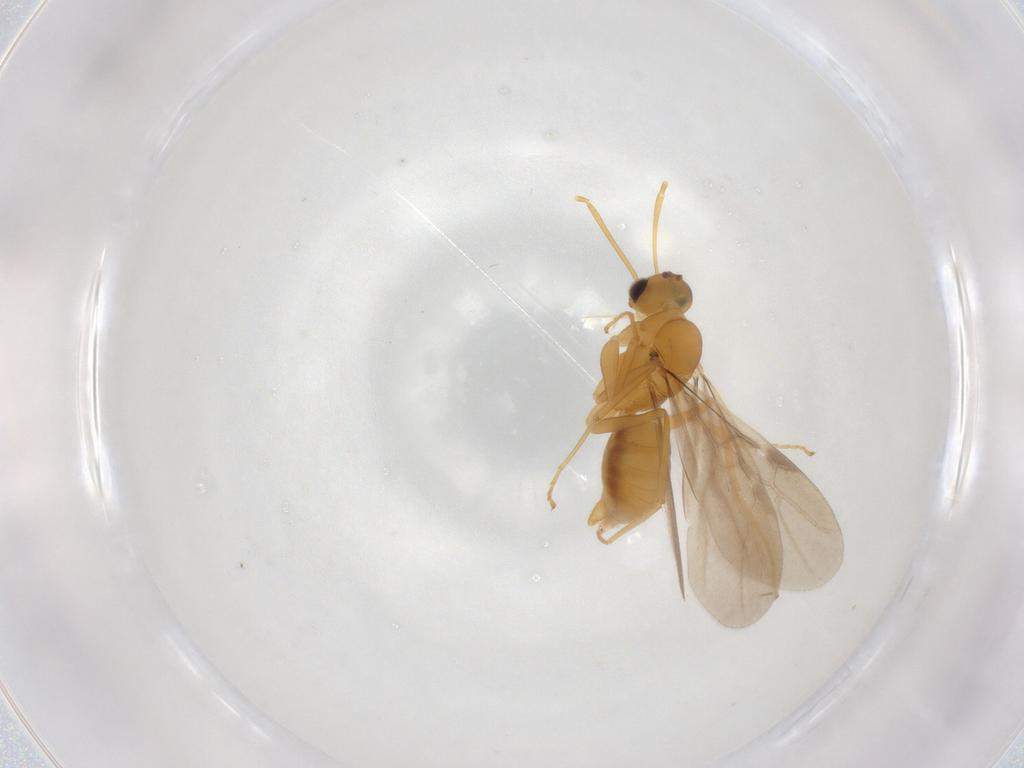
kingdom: Animalia
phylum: Arthropoda
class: Insecta
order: Hymenoptera
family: Formicidae
